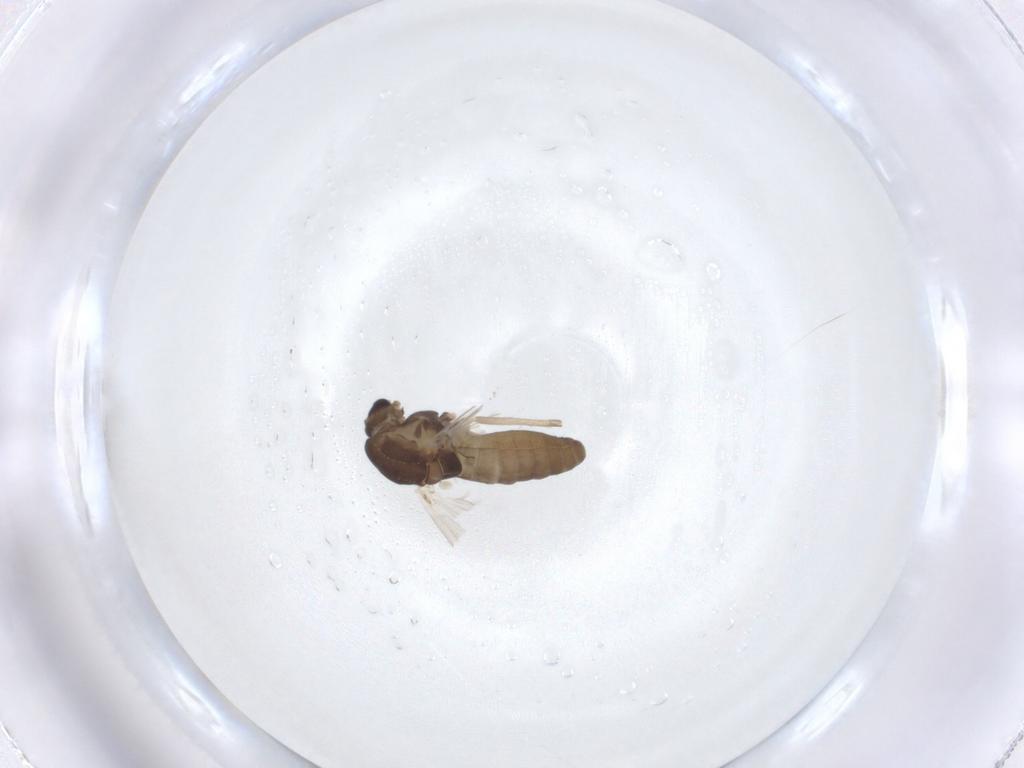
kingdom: Animalia
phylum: Arthropoda
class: Insecta
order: Diptera
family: Chironomidae
